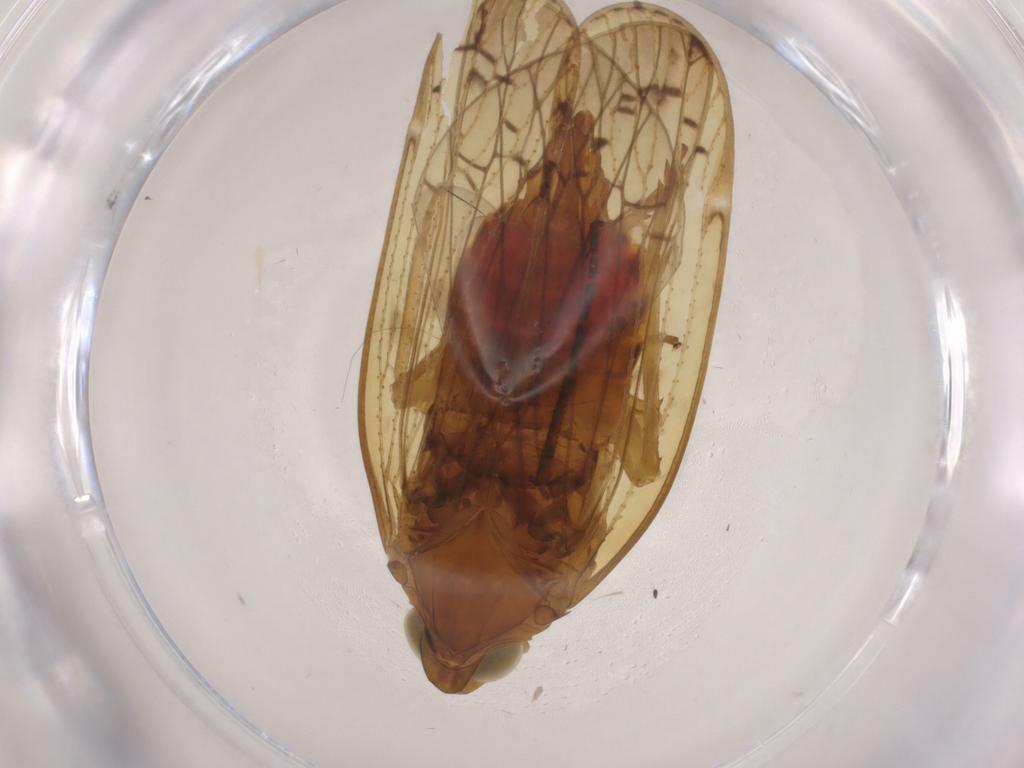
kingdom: Animalia
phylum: Arthropoda
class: Insecta
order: Hemiptera
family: Cicadellidae
